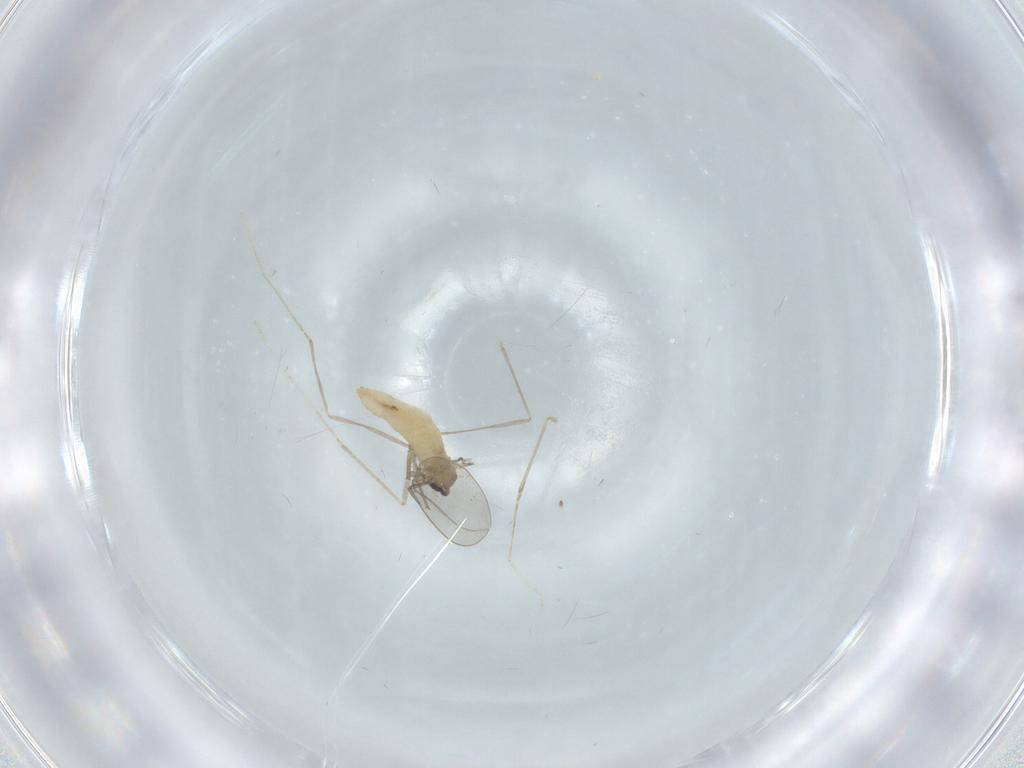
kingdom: Animalia
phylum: Arthropoda
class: Insecta
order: Diptera
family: Cecidomyiidae
